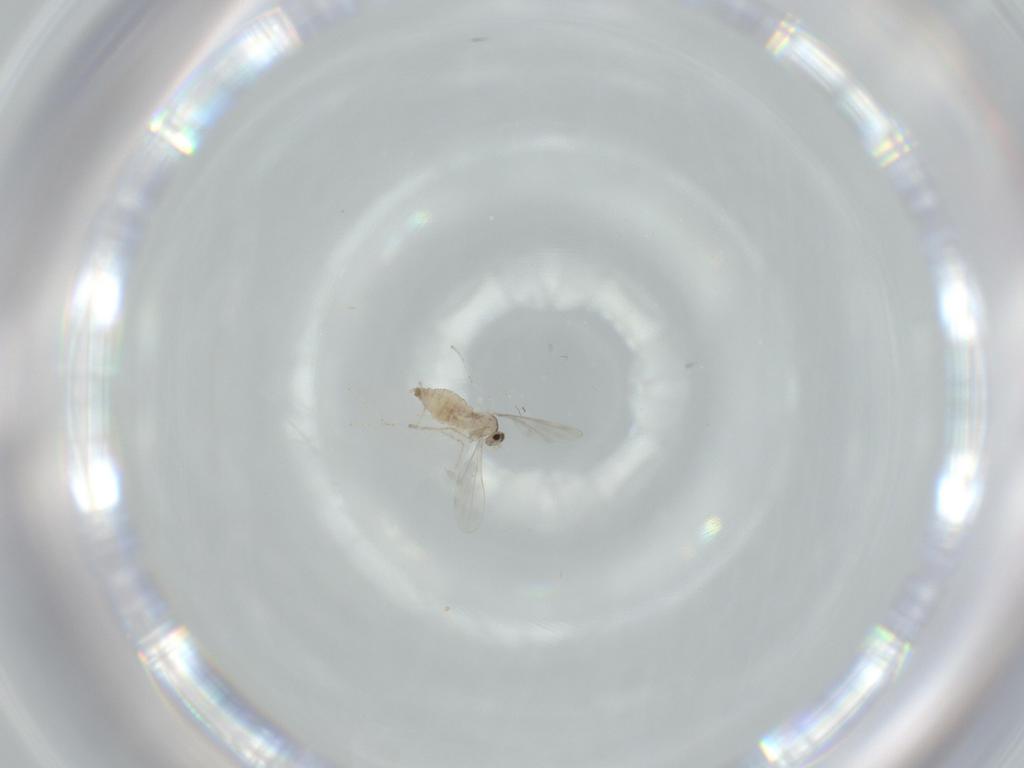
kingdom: Animalia
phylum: Arthropoda
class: Insecta
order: Diptera
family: Cecidomyiidae
